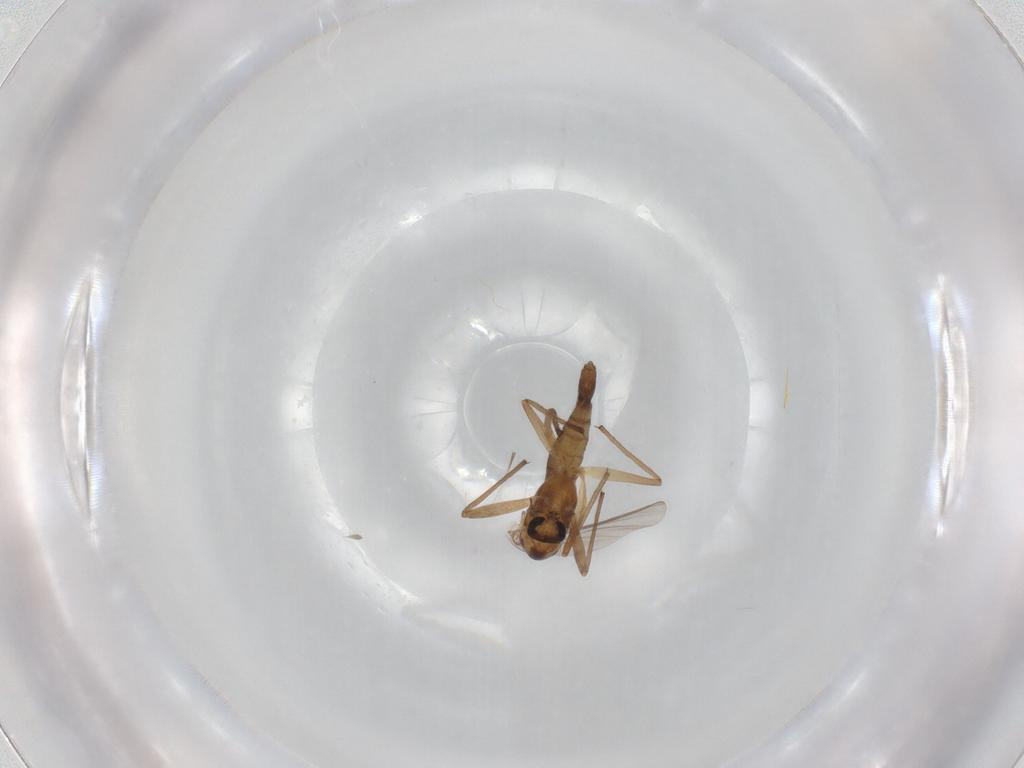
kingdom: Animalia
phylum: Arthropoda
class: Insecta
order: Diptera
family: Chironomidae
